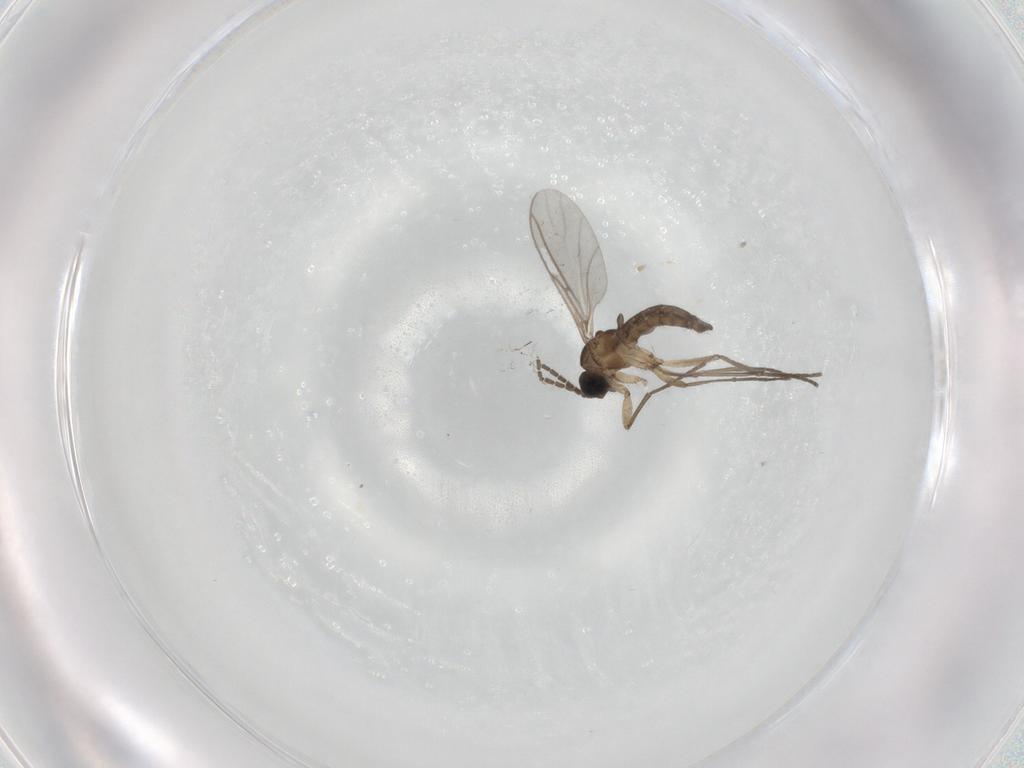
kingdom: Animalia
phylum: Arthropoda
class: Insecta
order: Diptera
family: Sciaridae
